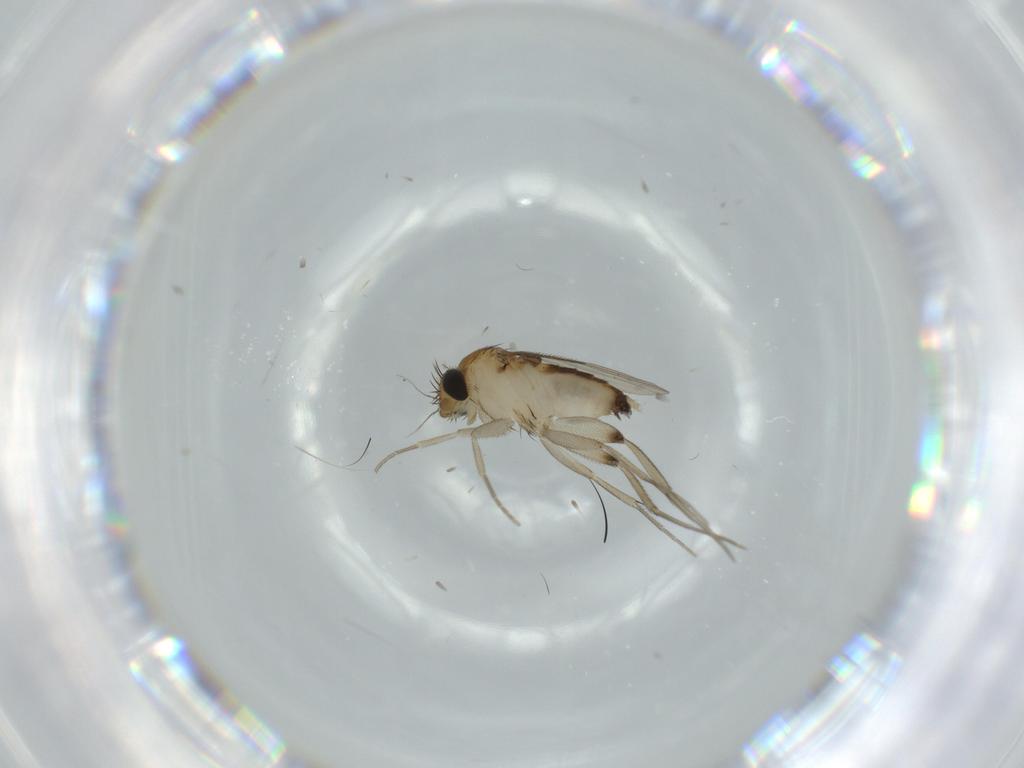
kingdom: Animalia
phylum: Arthropoda
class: Insecta
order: Diptera
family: Phoridae
